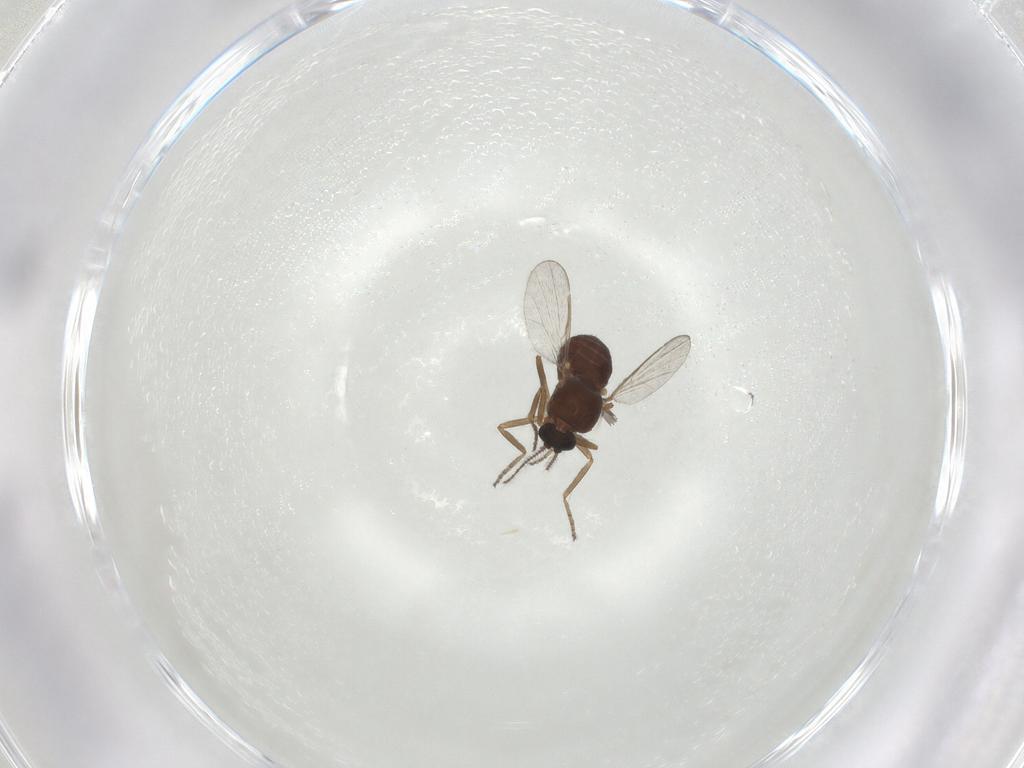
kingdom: Animalia
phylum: Arthropoda
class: Insecta
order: Diptera
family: Ceratopogonidae
